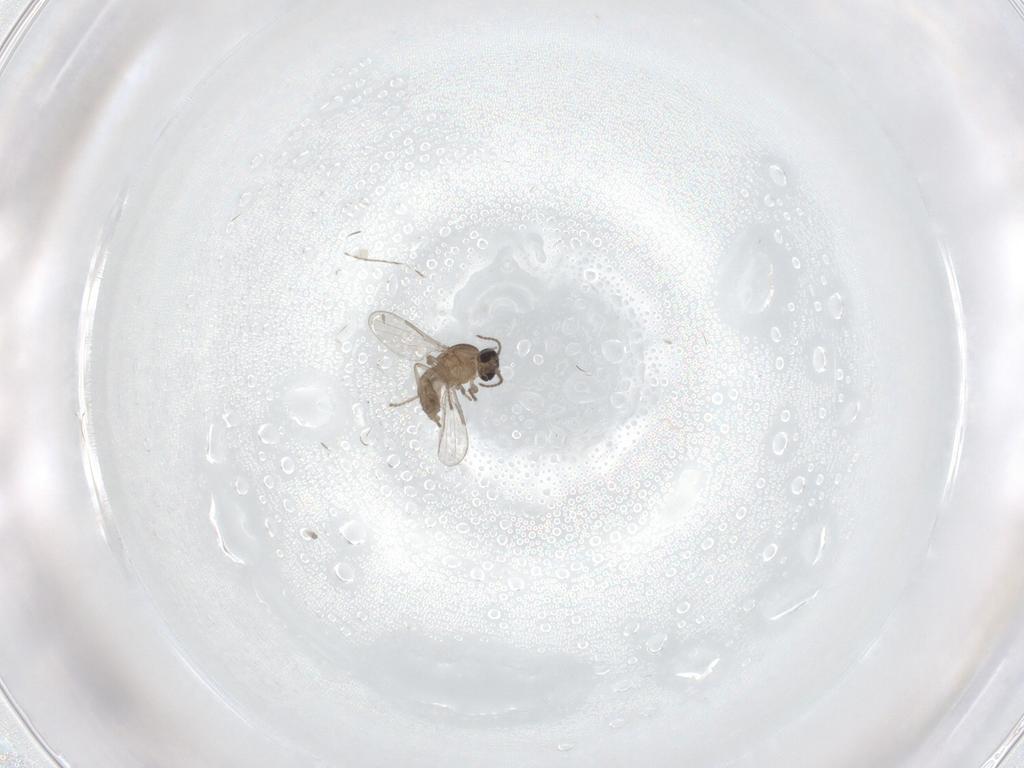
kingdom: Animalia
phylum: Arthropoda
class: Insecta
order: Diptera
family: Ceratopogonidae
